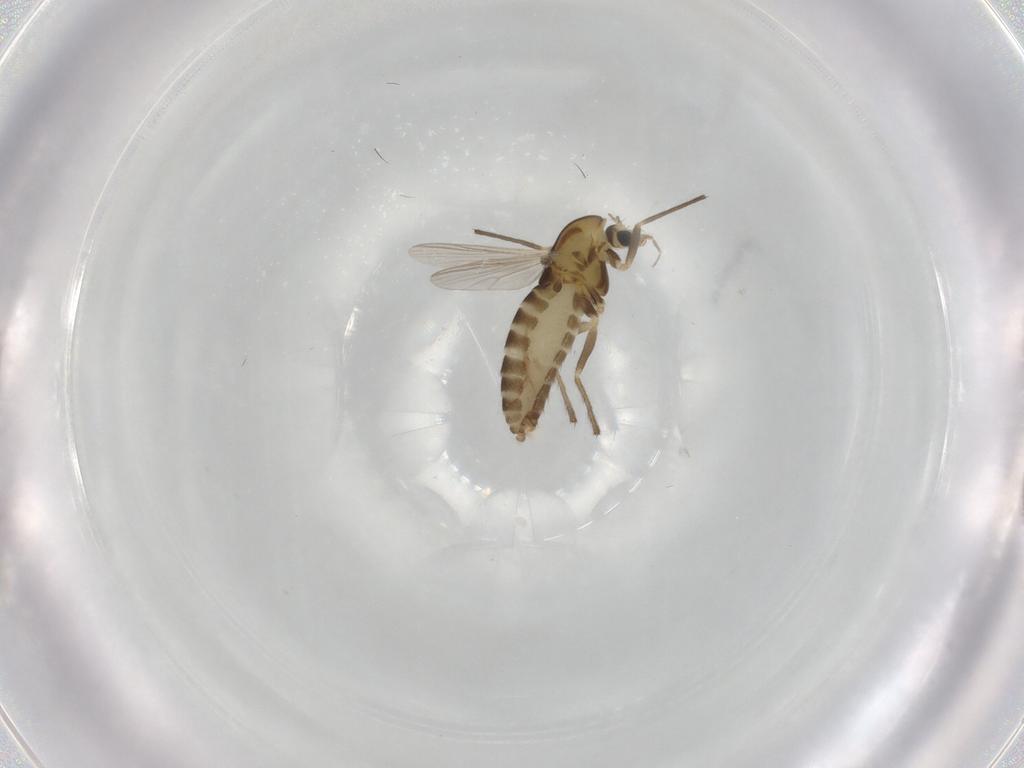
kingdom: Animalia
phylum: Arthropoda
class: Insecta
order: Diptera
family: Chironomidae
